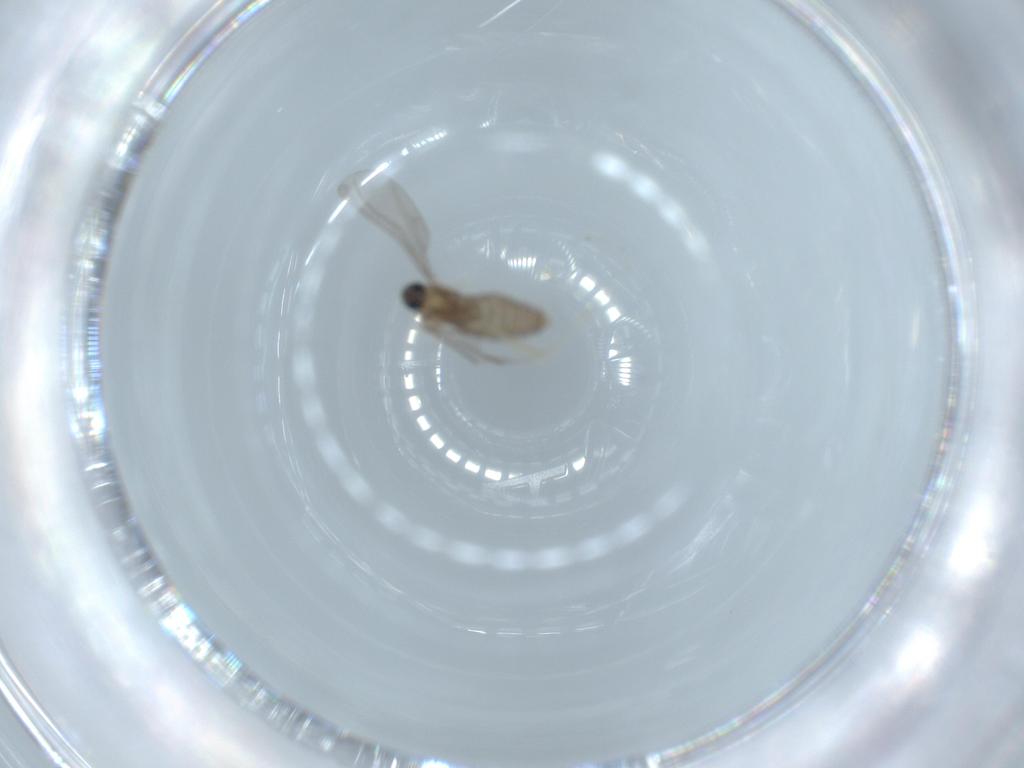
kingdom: Animalia
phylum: Arthropoda
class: Insecta
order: Diptera
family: Cecidomyiidae
